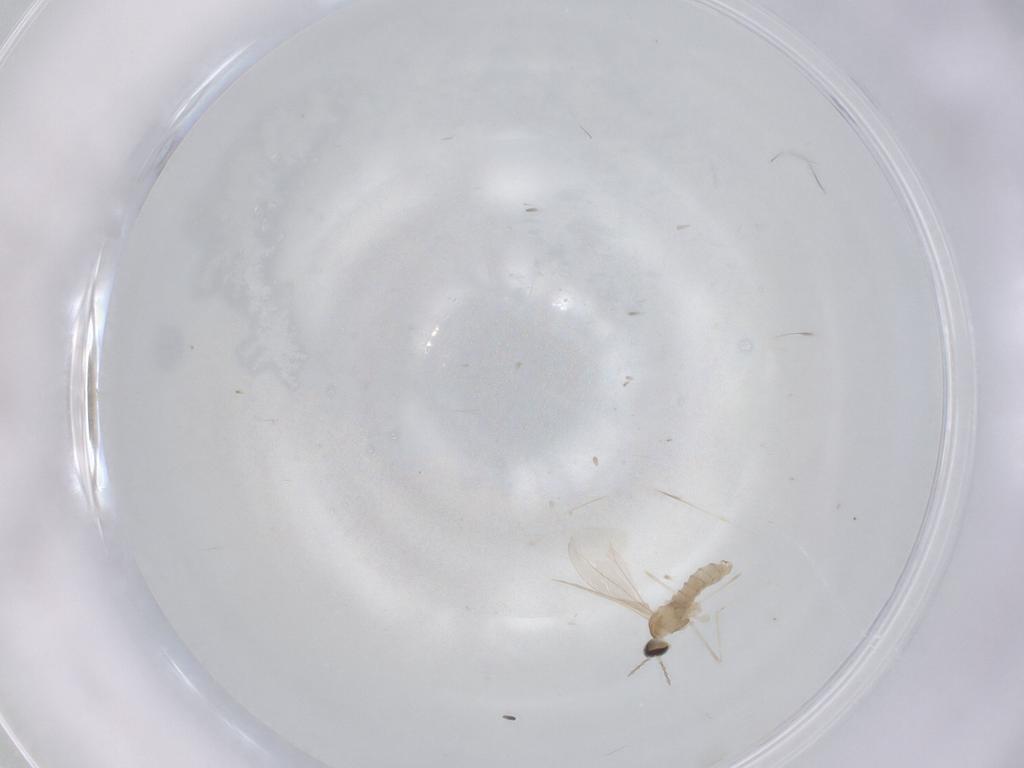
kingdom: Animalia
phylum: Arthropoda
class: Insecta
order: Diptera
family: Cecidomyiidae
